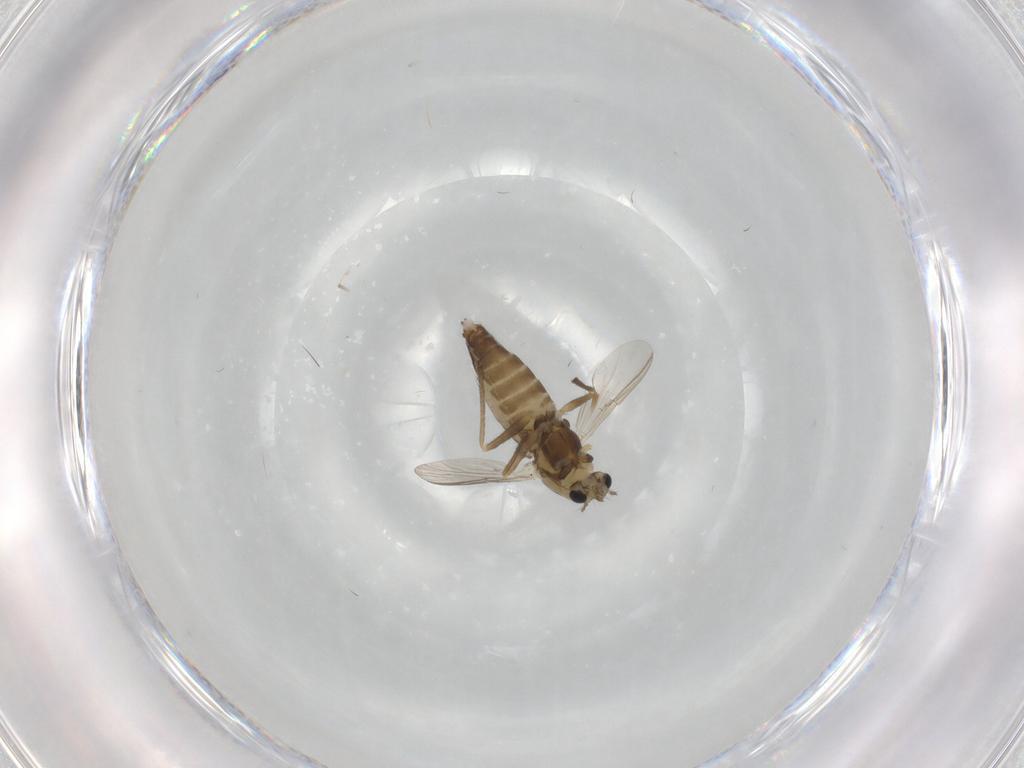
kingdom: Animalia
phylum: Arthropoda
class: Insecta
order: Diptera
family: Chironomidae
